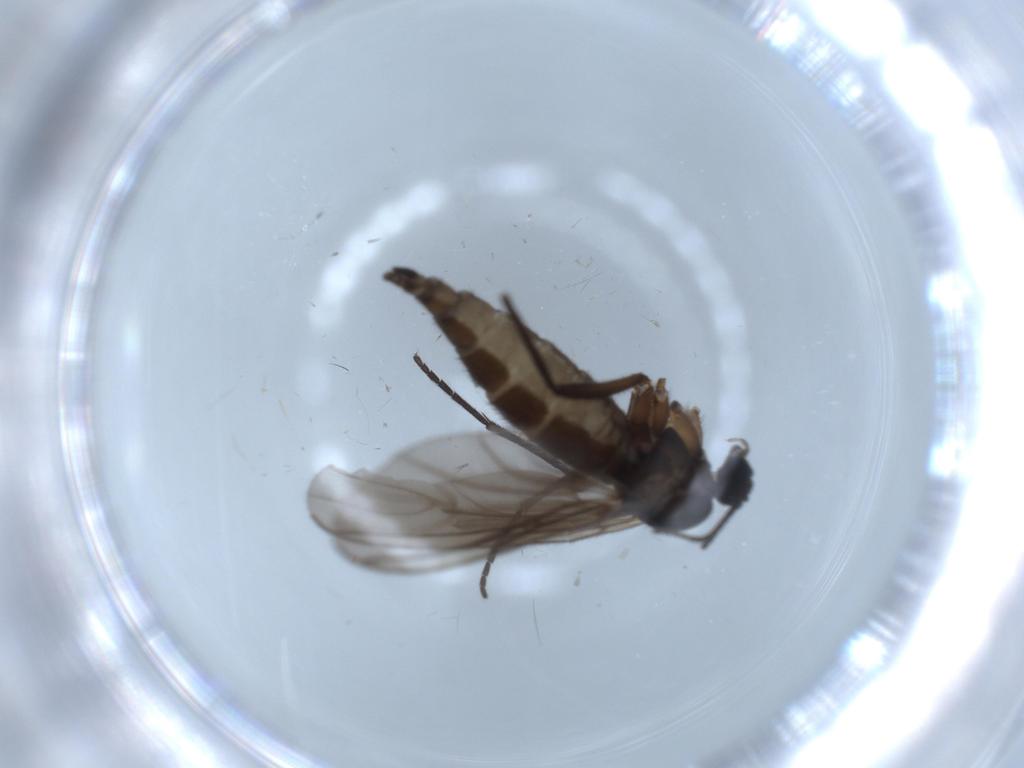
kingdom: Animalia
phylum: Arthropoda
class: Insecta
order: Diptera
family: Sciaridae
